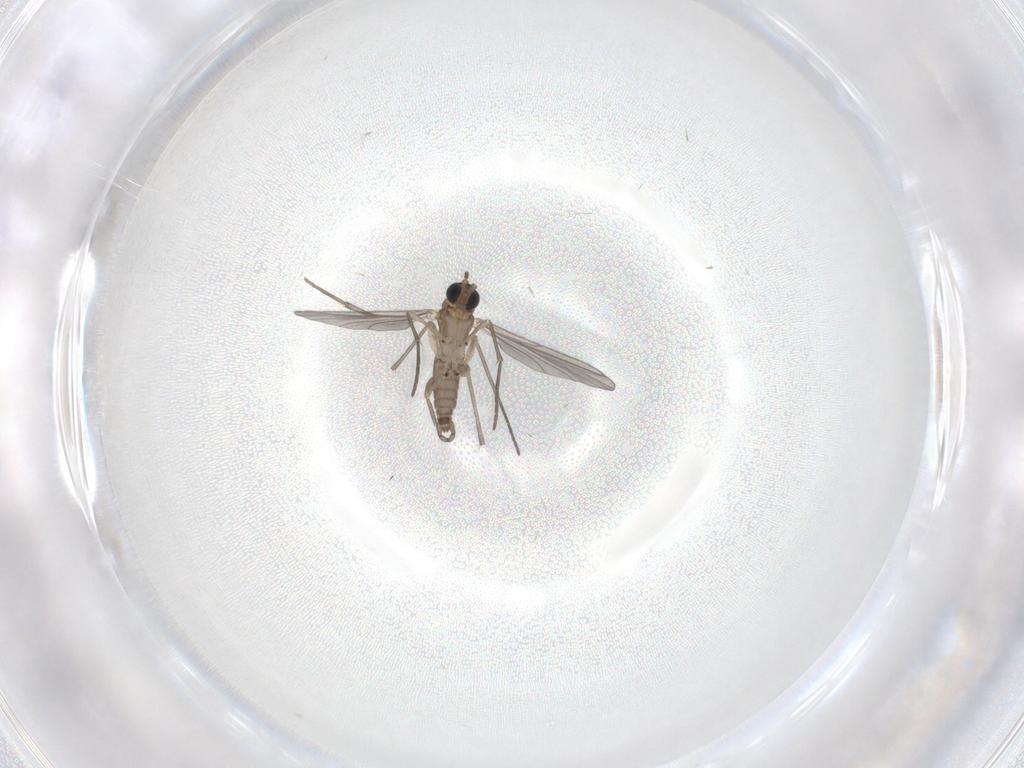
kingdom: Animalia
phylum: Arthropoda
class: Insecta
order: Diptera
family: Sciaridae
